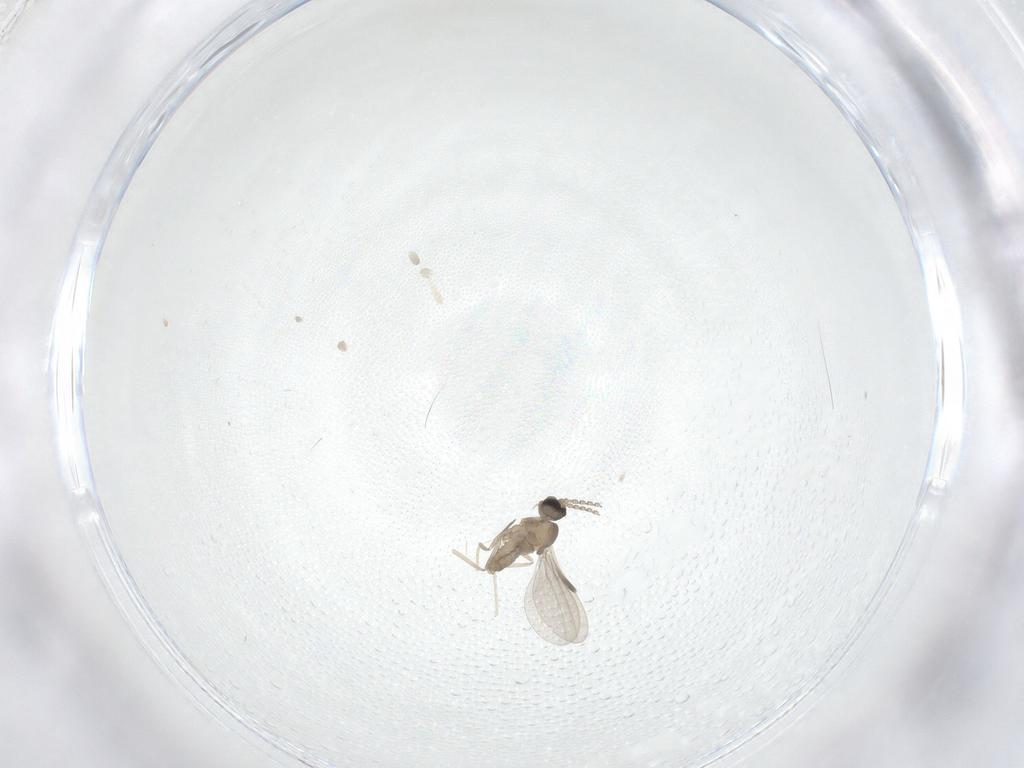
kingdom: Animalia
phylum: Arthropoda
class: Insecta
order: Diptera
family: Cecidomyiidae
